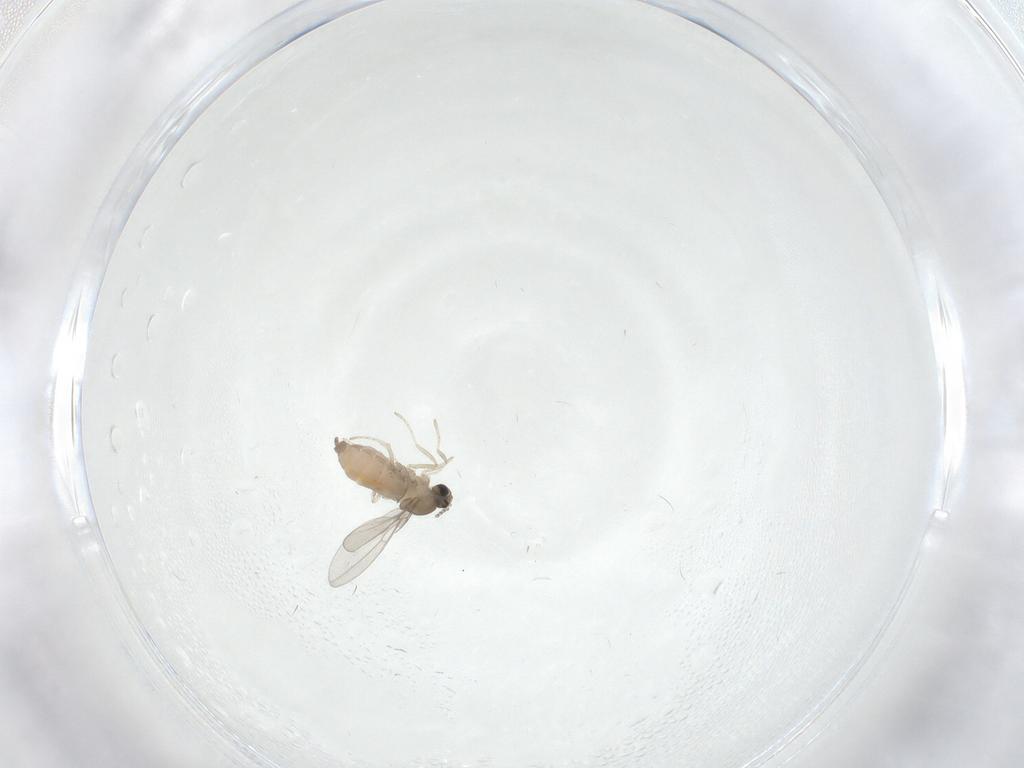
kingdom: Animalia
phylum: Arthropoda
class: Insecta
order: Diptera
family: Cecidomyiidae
